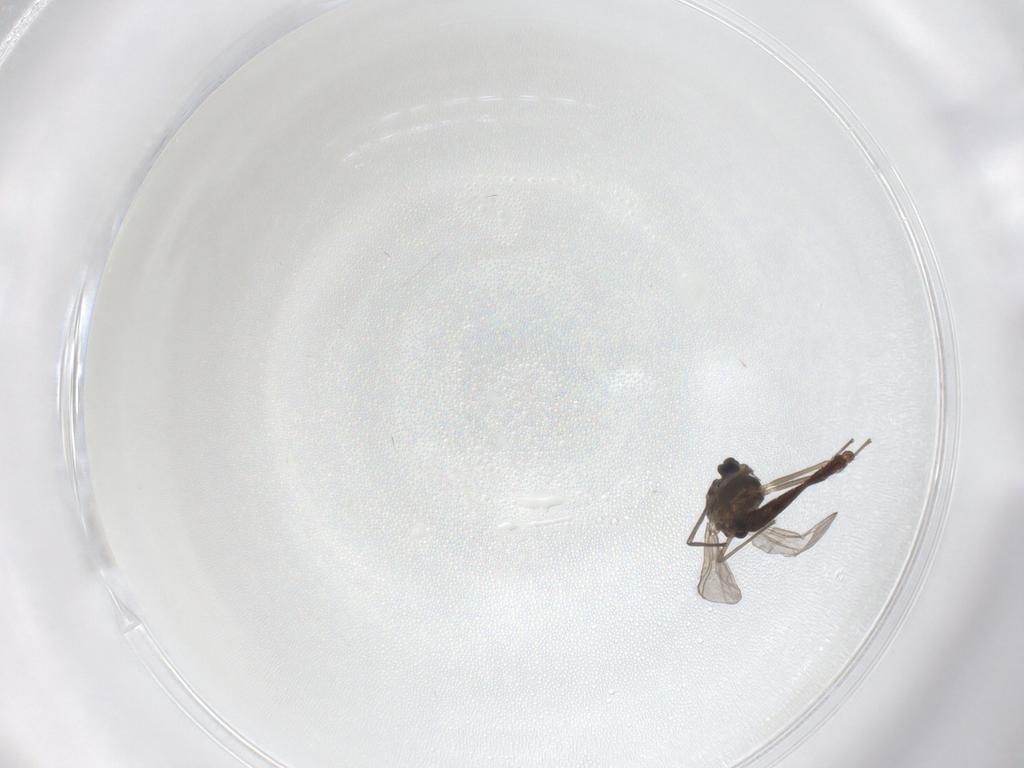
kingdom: Animalia
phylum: Arthropoda
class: Insecta
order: Diptera
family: Chironomidae
